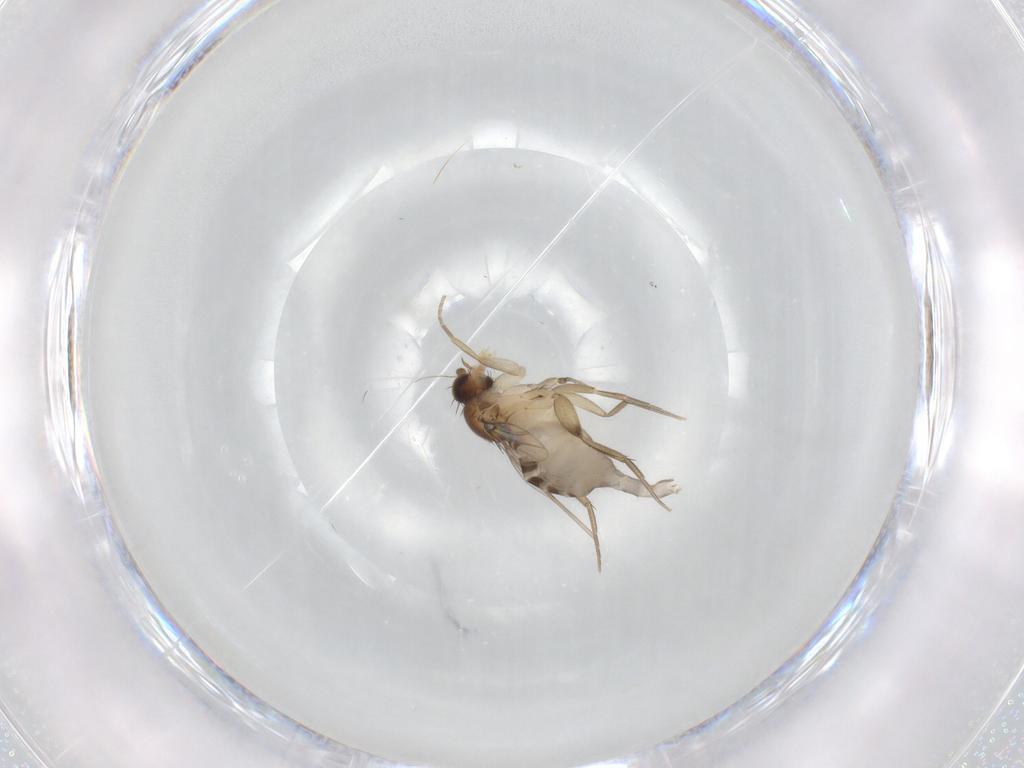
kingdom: Animalia
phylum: Arthropoda
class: Insecta
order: Diptera
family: Phoridae
